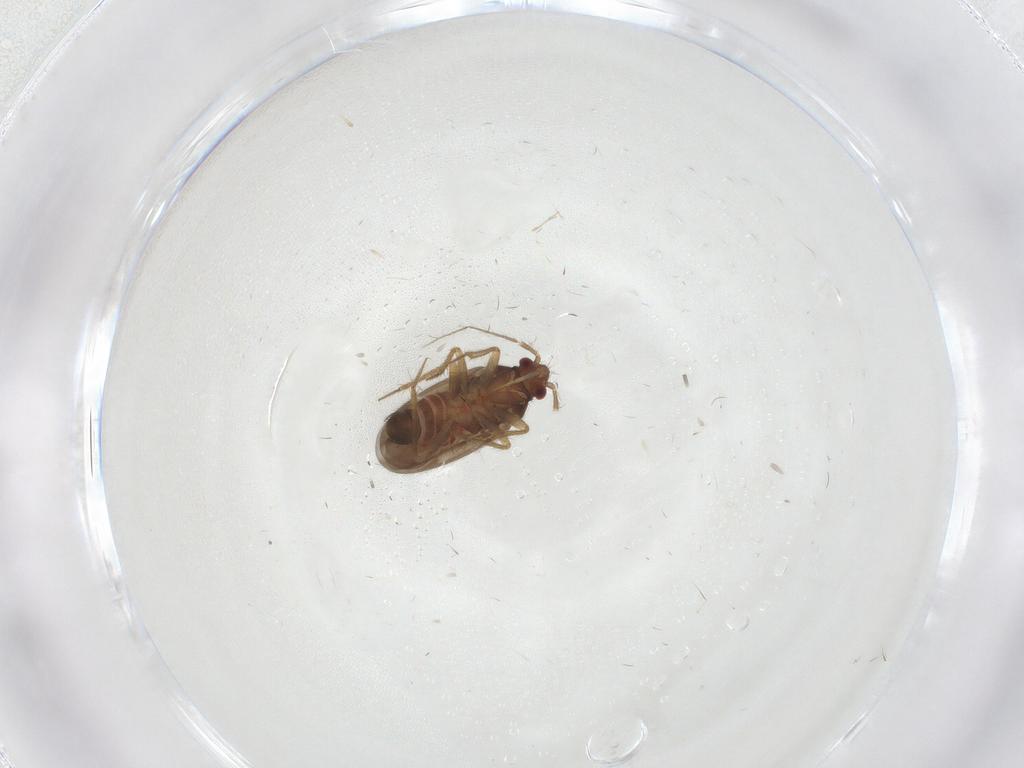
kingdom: Animalia
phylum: Arthropoda
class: Insecta
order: Hemiptera
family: Ceratocombidae
